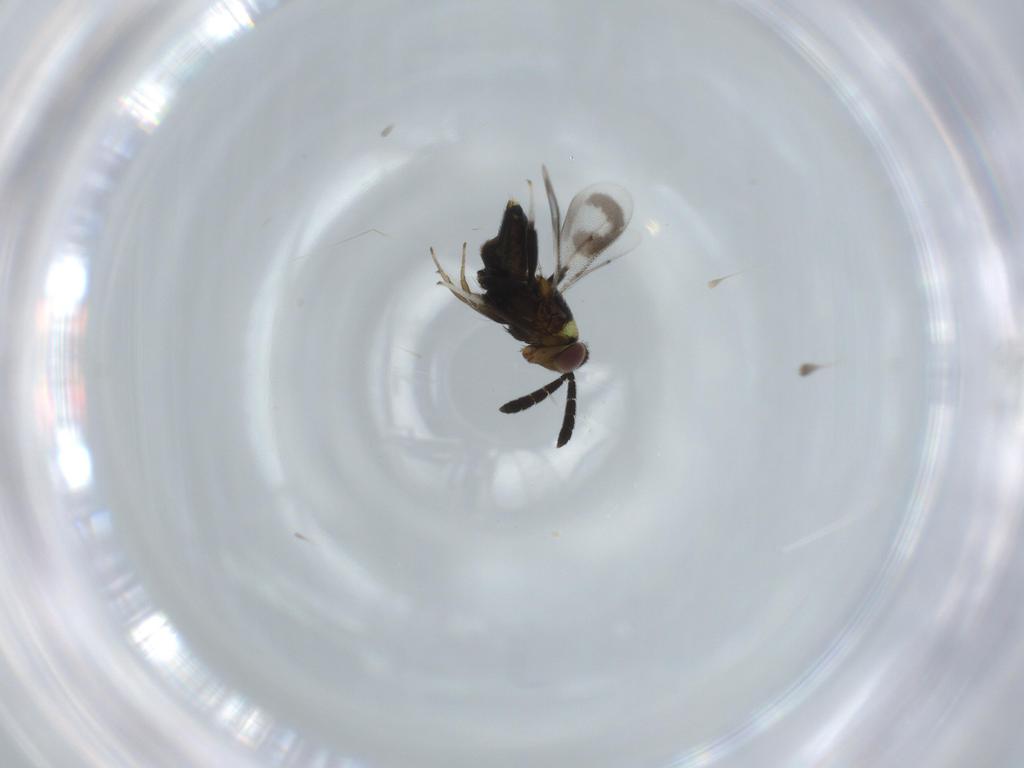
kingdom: Animalia
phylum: Arthropoda
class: Insecta
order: Hymenoptera
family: Aphelinidae
